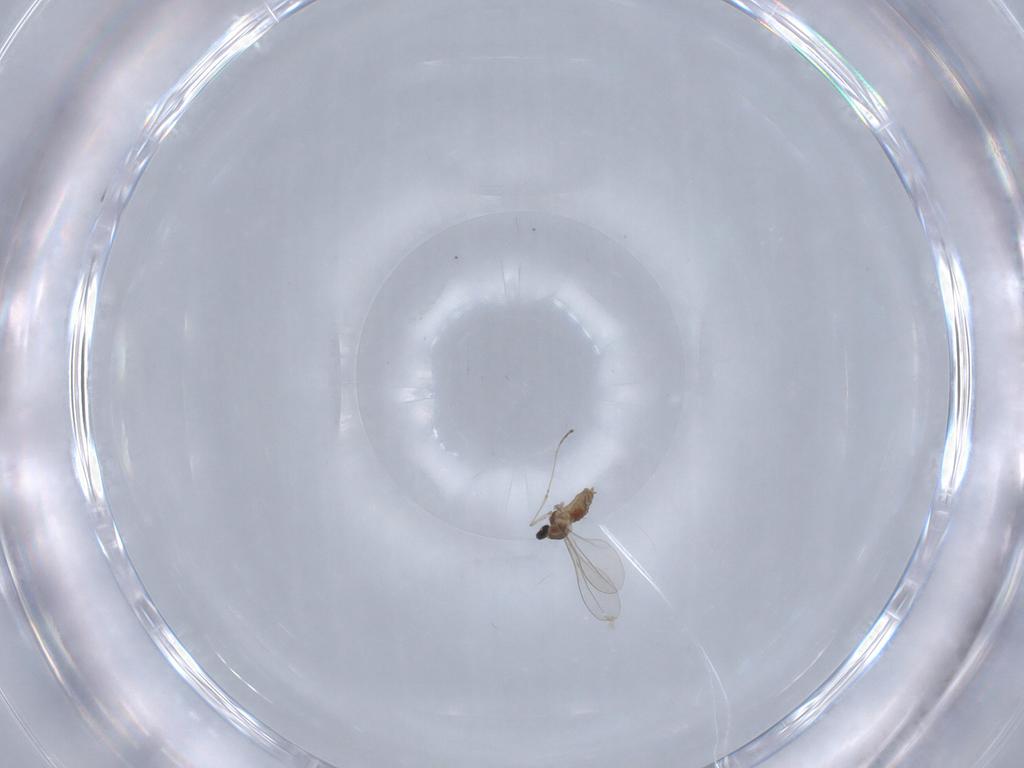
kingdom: Animalia
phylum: Arthropoda
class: Insecta
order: Diptera
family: Cecidomyiidae
